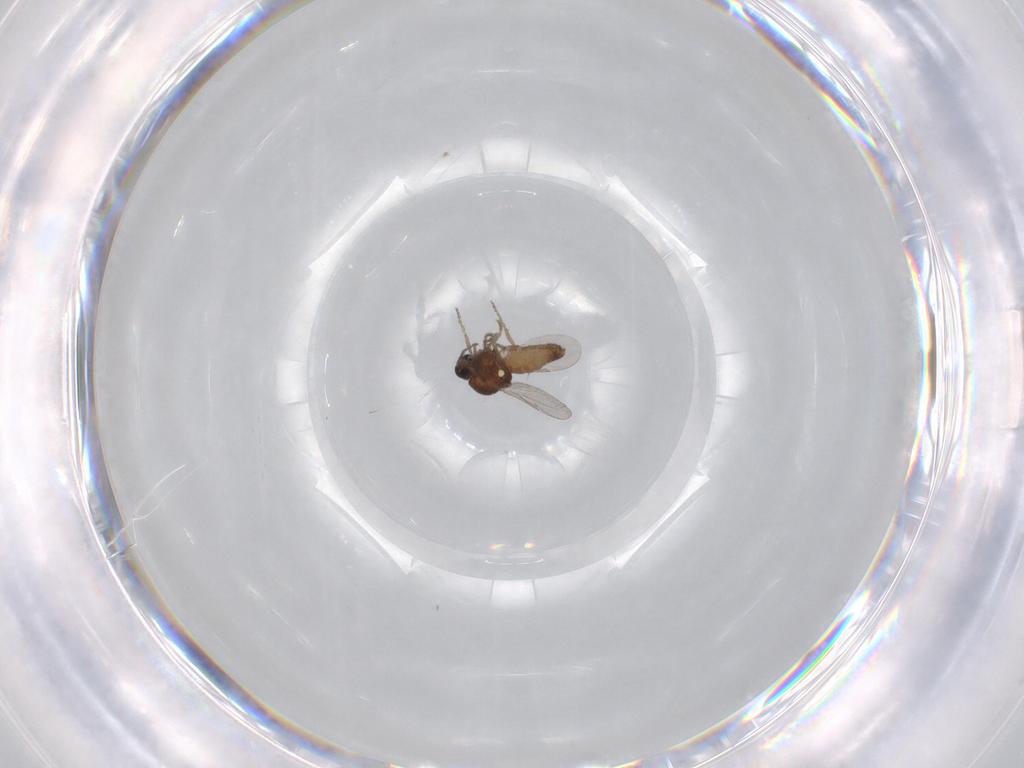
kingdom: Animalia
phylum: Arthropoda
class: Insecta
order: Diptera
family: Ceratopogonidae
